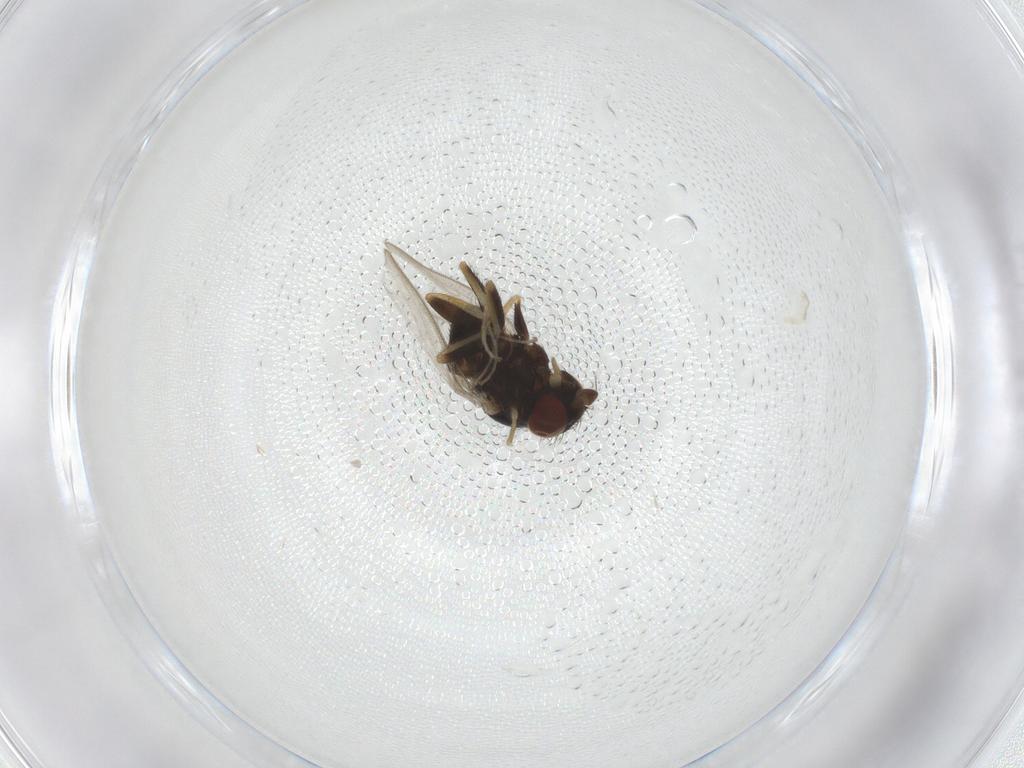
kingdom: Animalia
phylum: Arthropoda
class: Insecta
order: Diptera
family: Milichiidae
